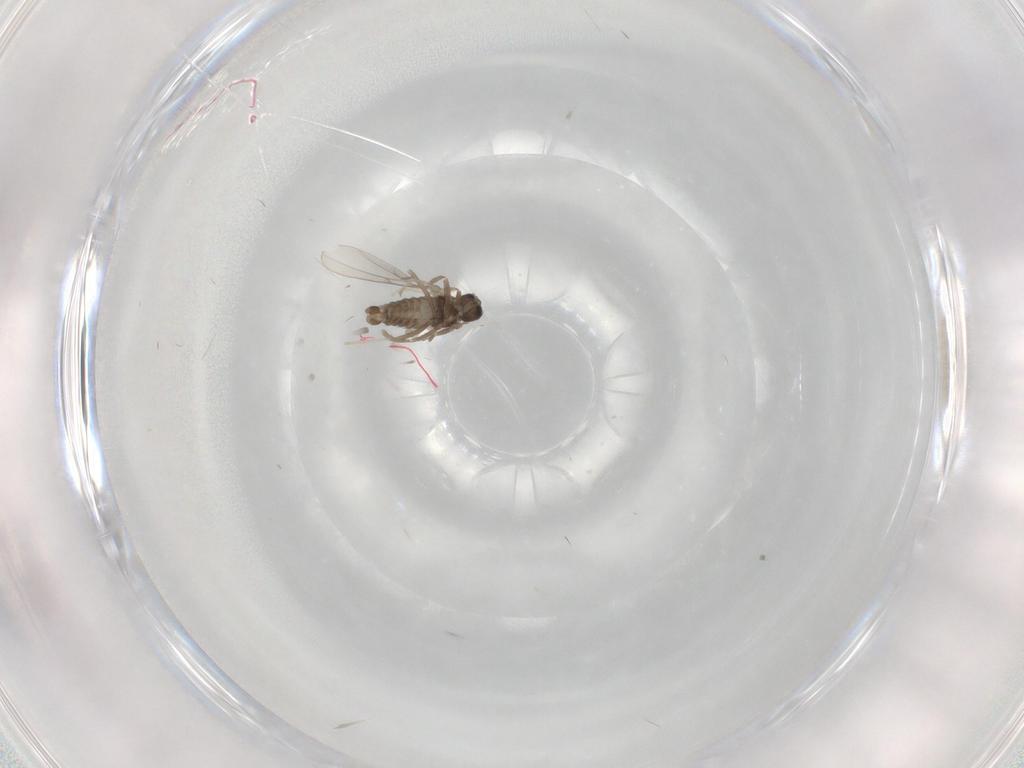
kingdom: Animalia
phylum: Arthropoda
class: Insecta
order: Diptera
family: Cecidomyiidae
